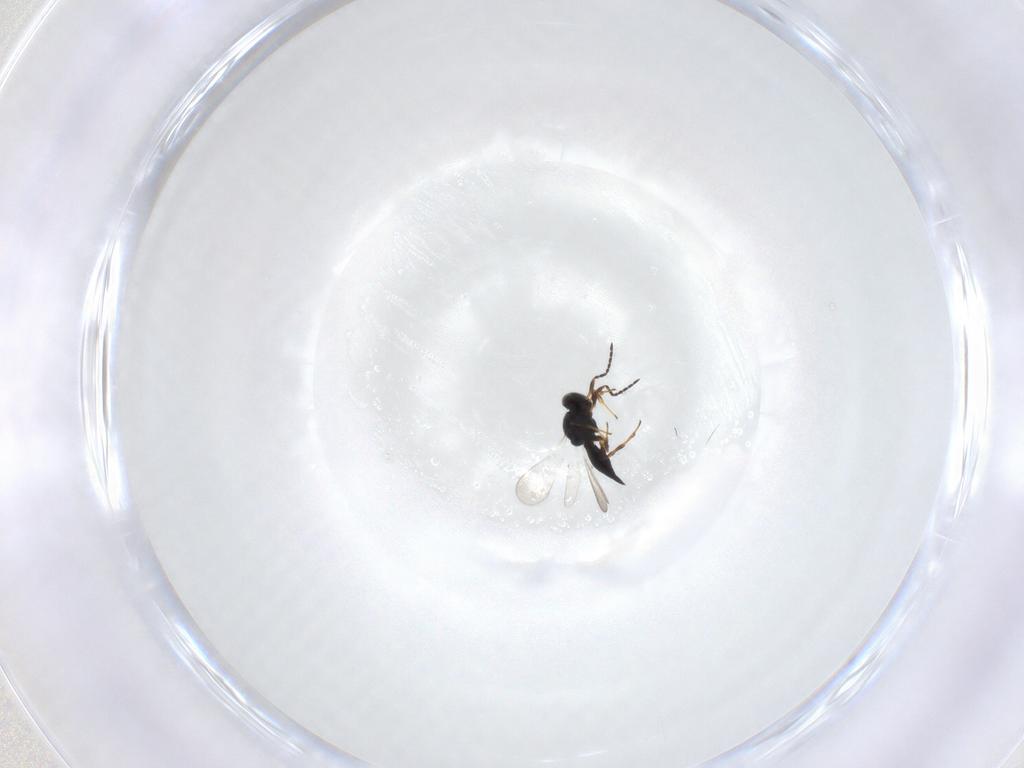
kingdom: Animalia
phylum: Arthropoda
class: Insecta
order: Hymenoptera
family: Platygastridae
